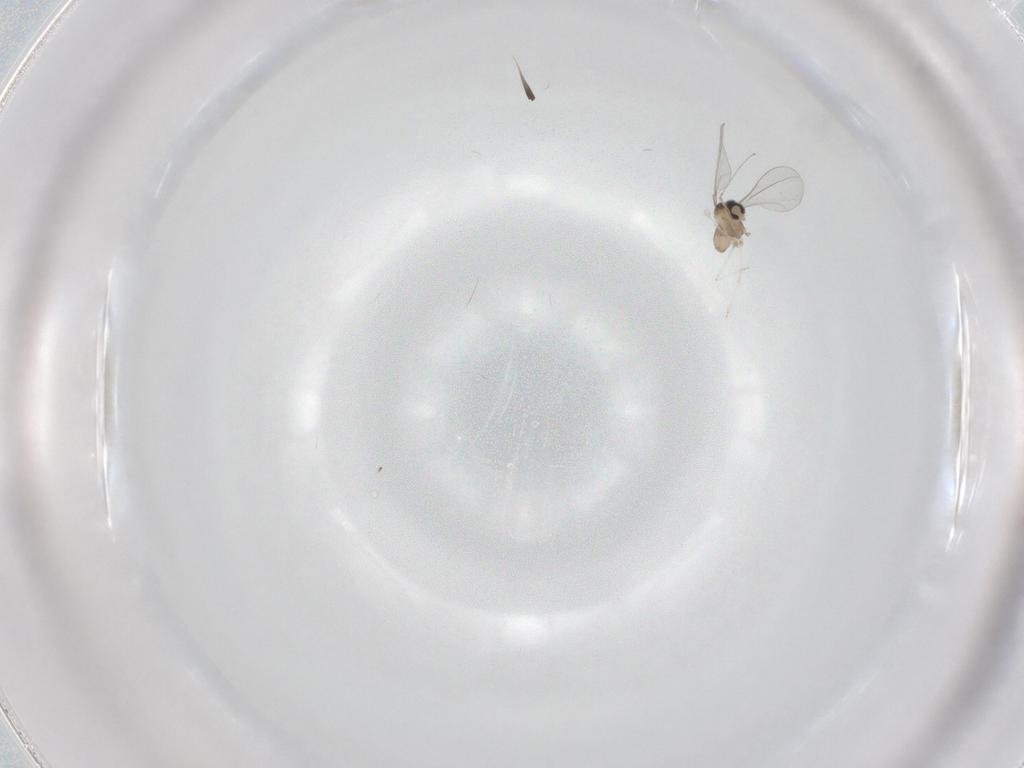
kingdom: Animalia
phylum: Arthropoda
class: Insecta
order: Diptera
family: Cecidomyiidae
